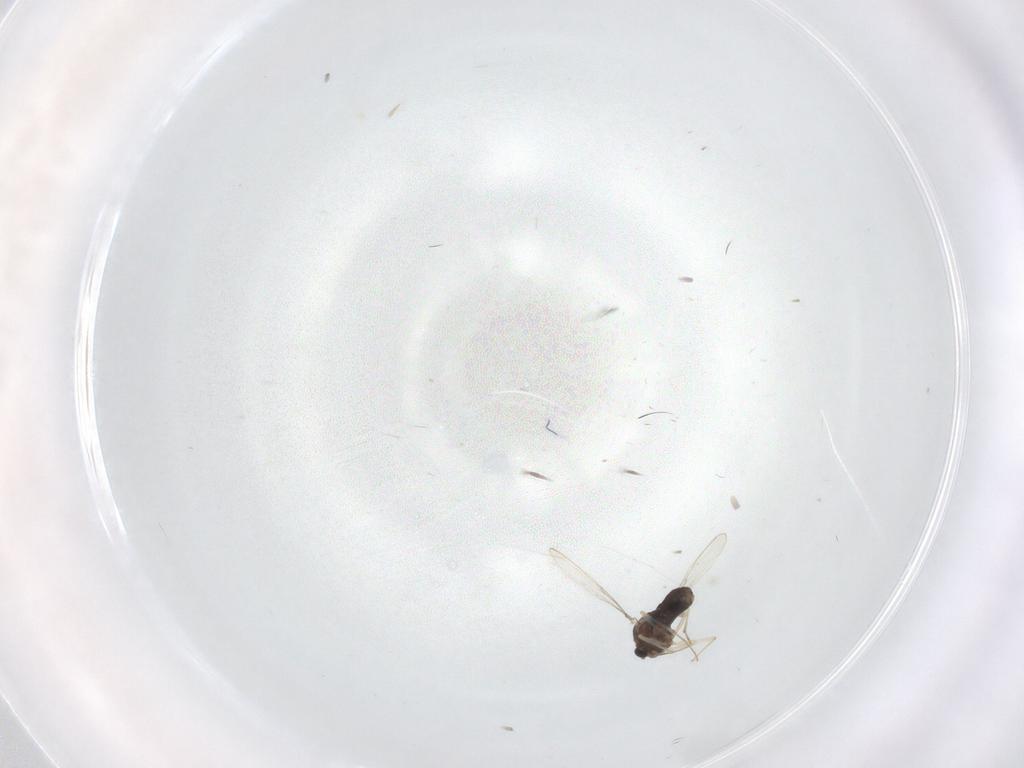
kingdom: Animalia
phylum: Arthropoda
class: Insecta
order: Diptera
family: Chironomidae
